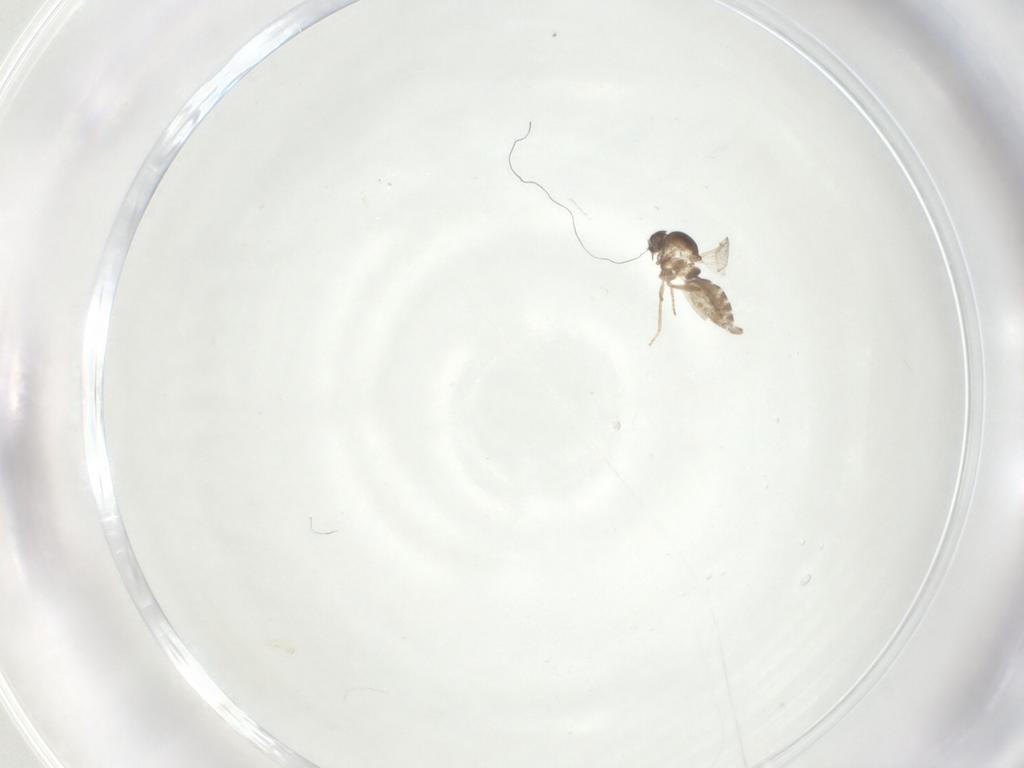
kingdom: Animalia
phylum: Arthropoda
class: Insecta
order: Diptera
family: Ceratopogonidae
